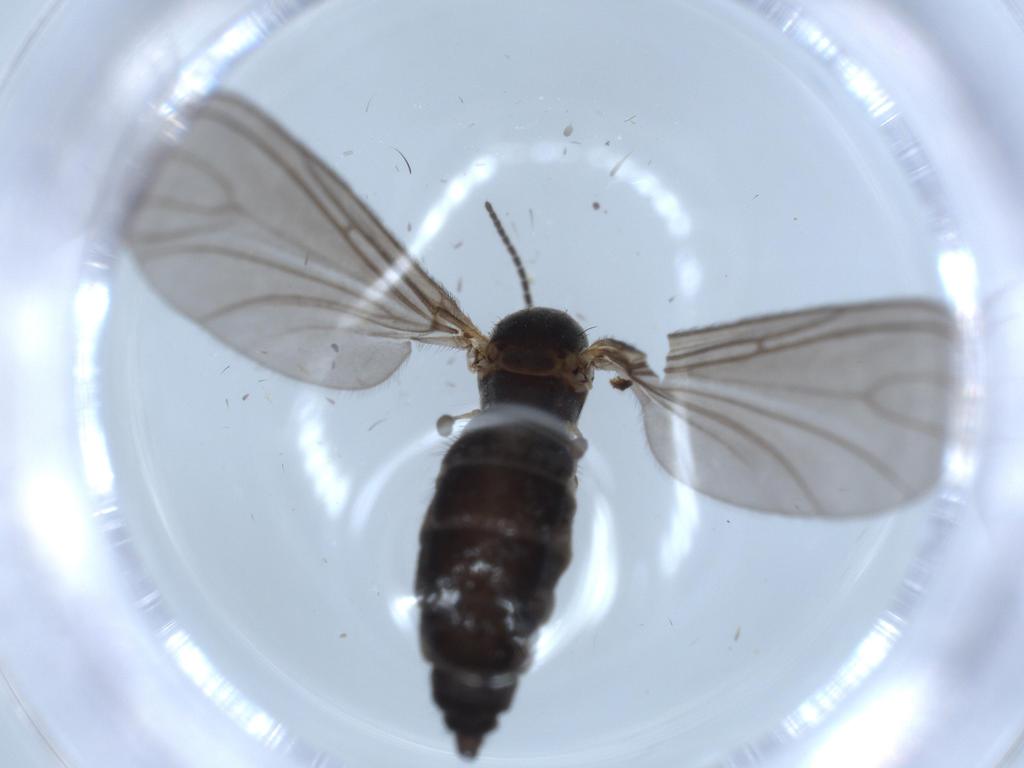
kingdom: Animalia
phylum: Arthropoda
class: Insecta
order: Diptera
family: Sciaridae
